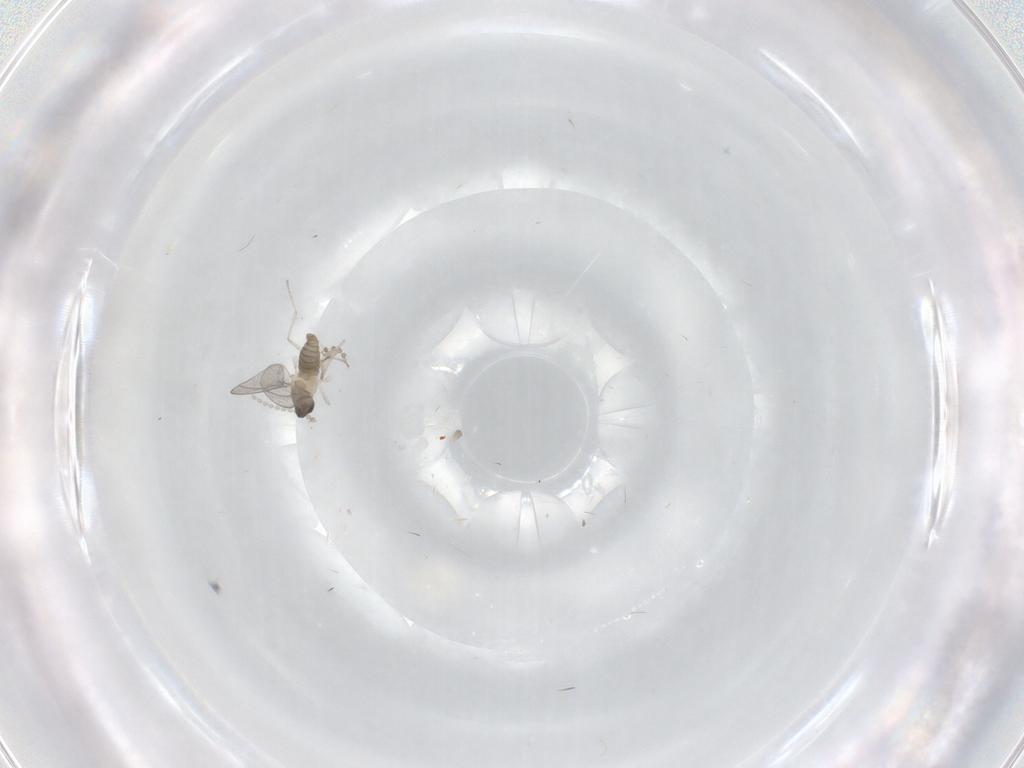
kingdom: Animalia
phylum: Arthropoda
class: Insecta
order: Diptera
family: Cecidomyiidae
